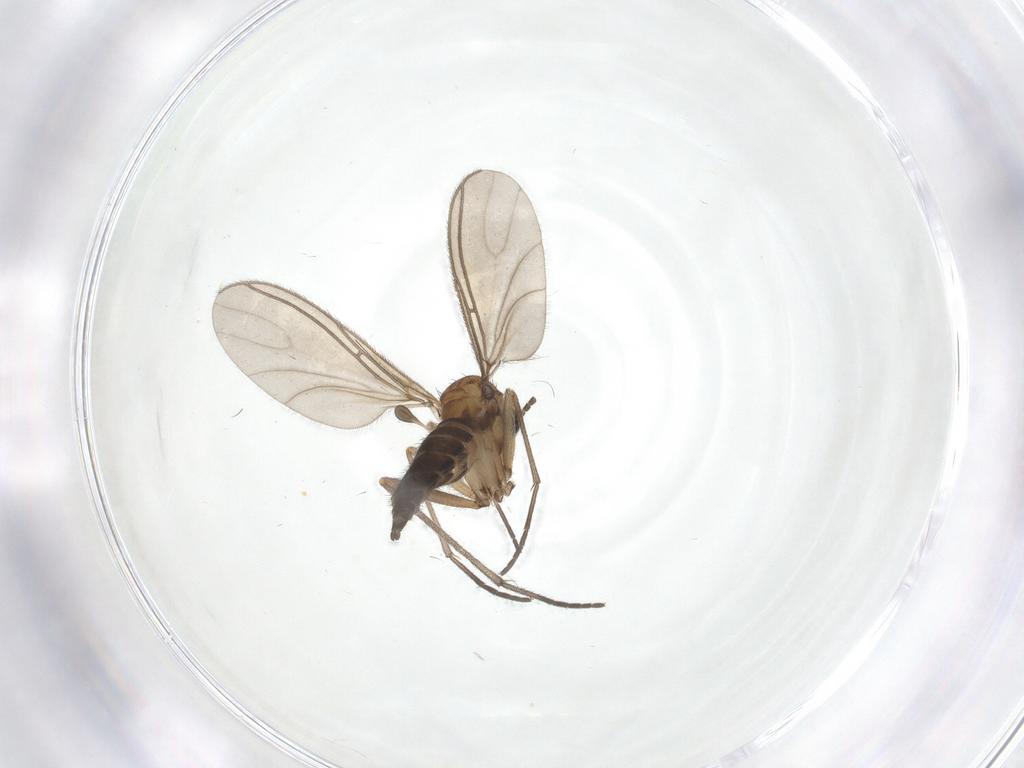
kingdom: Animalia
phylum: Arthropoda
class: Insecta
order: Diptera
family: Sciaridae
